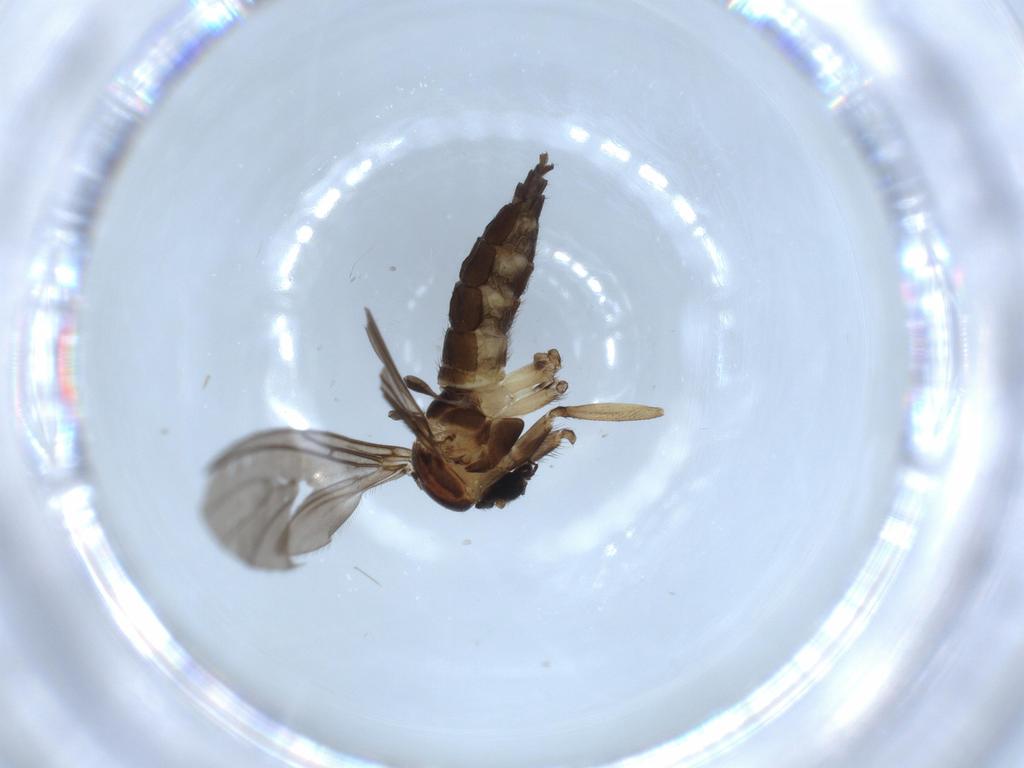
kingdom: Animalia
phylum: Arthropoda
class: Insecta
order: Diptera
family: Sciaridae
